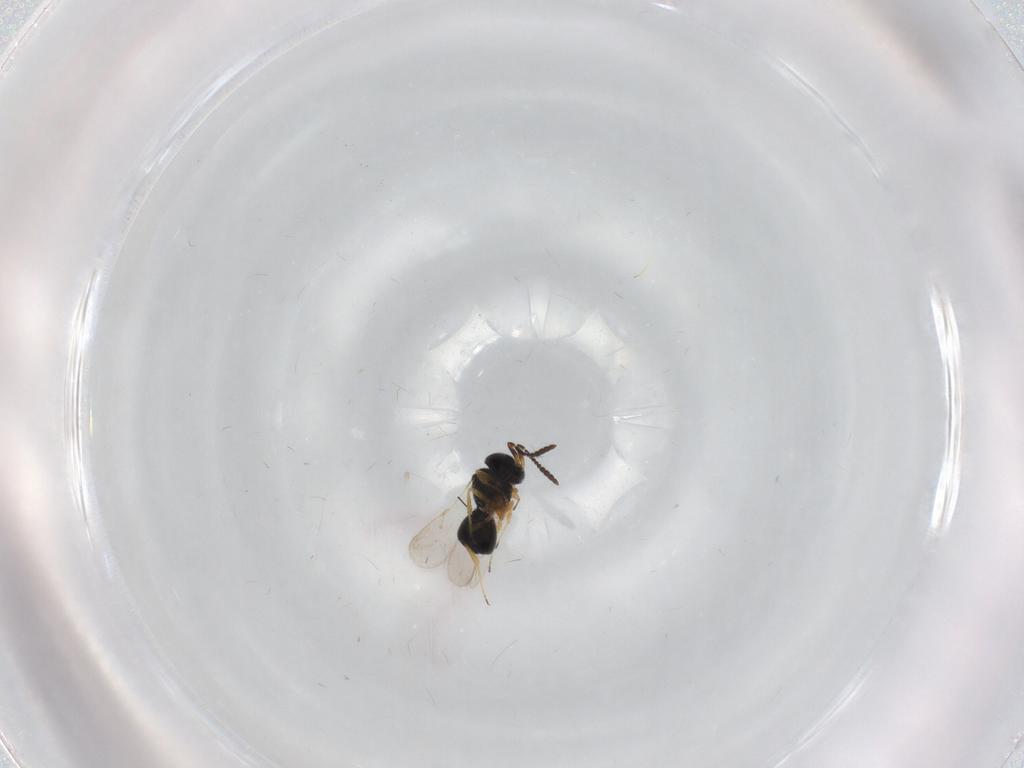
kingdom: Animalia
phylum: Arthropoda
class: Insecta
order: Hymenoptera
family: Scelionidae
